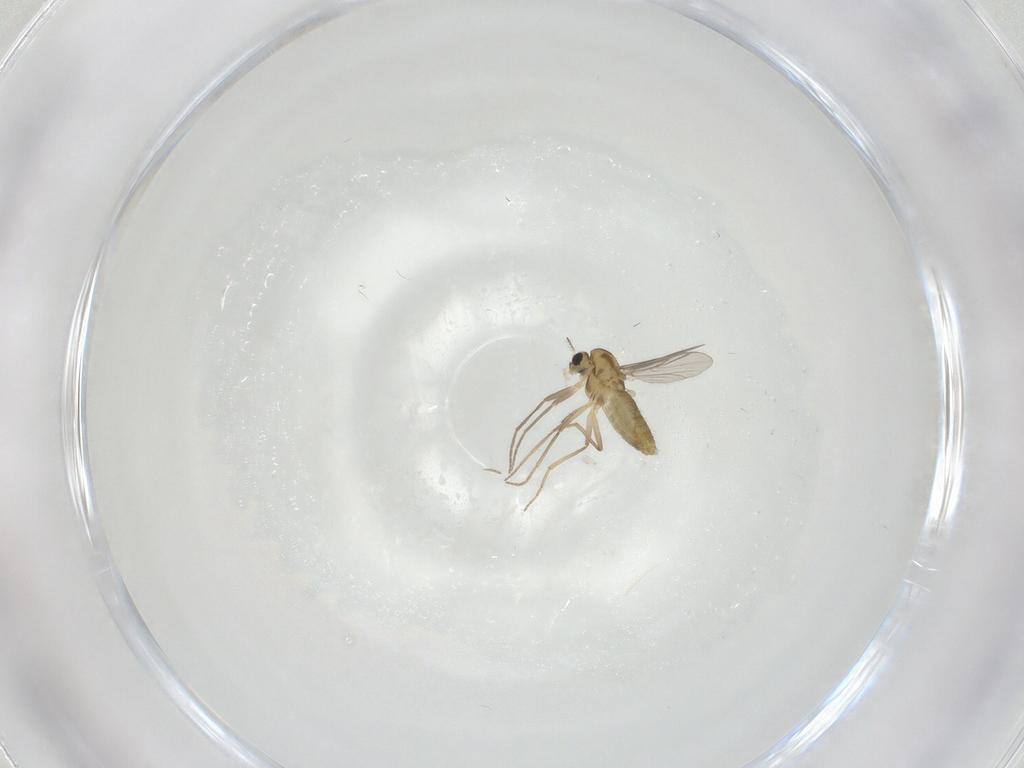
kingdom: Animalia
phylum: Arthropoda
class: Insecta
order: Diptera
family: Chironomidae
